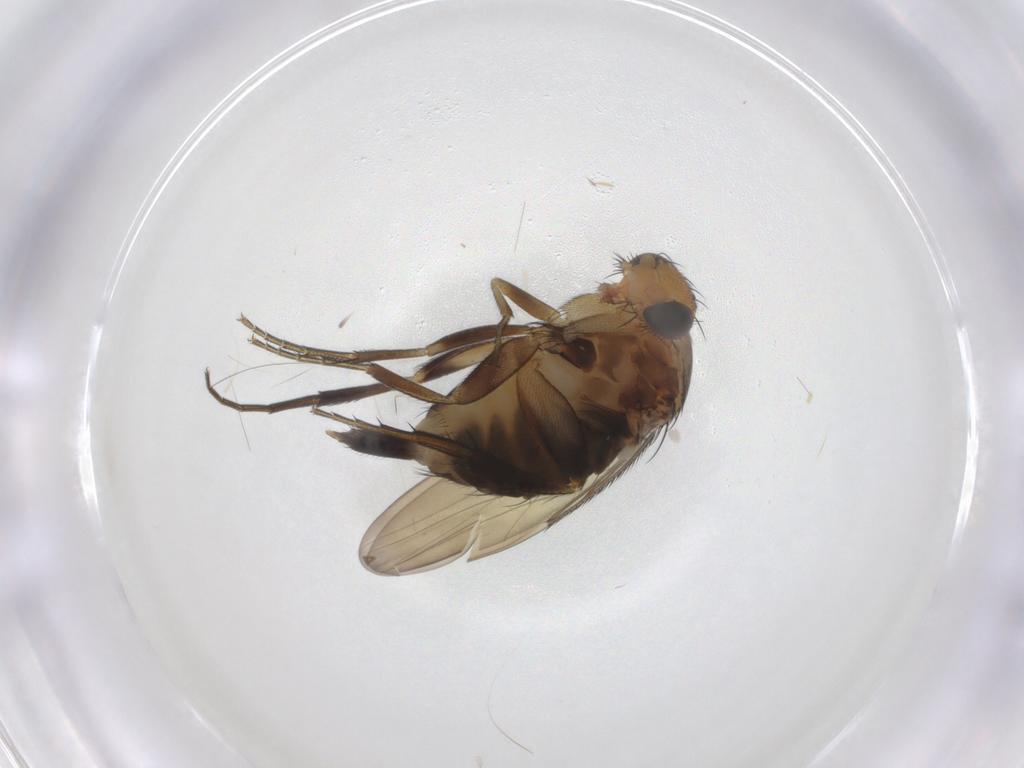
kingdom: Animalia
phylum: Arthropoda
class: Insecta
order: Diptera
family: Phoridae
